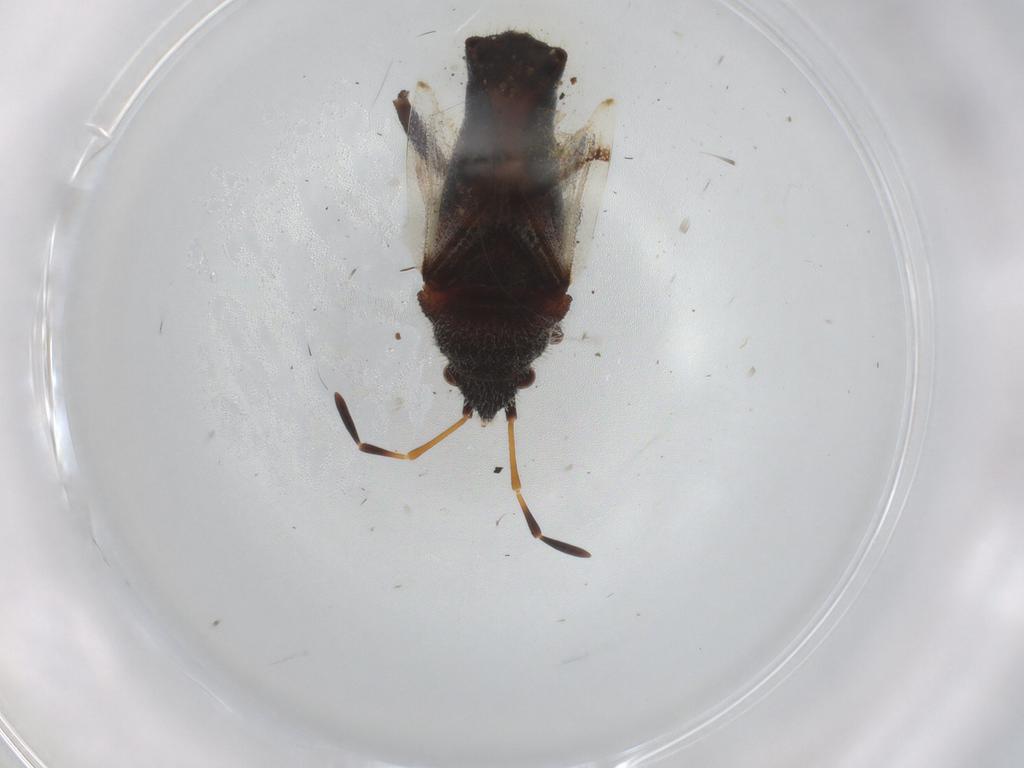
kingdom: Animalia
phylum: Arthropoda
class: Insecta
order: Hemiptera
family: Oxycarenidae
